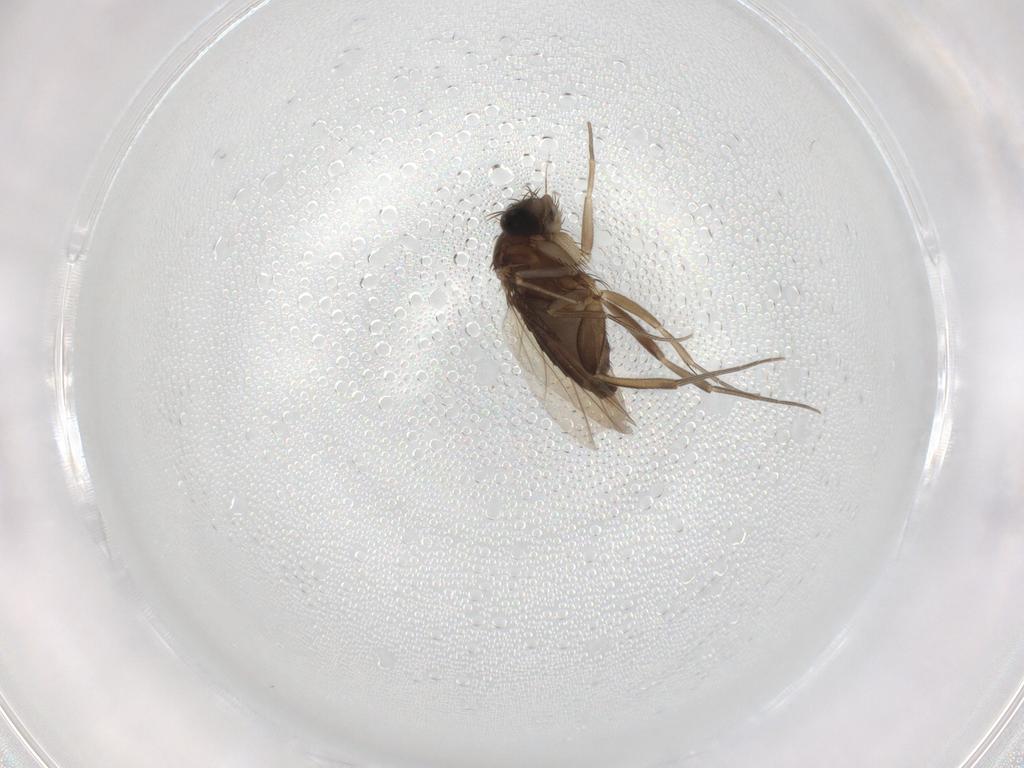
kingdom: Animalia
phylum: Arthropoda
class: Insecta
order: Diptera
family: Phoridae
